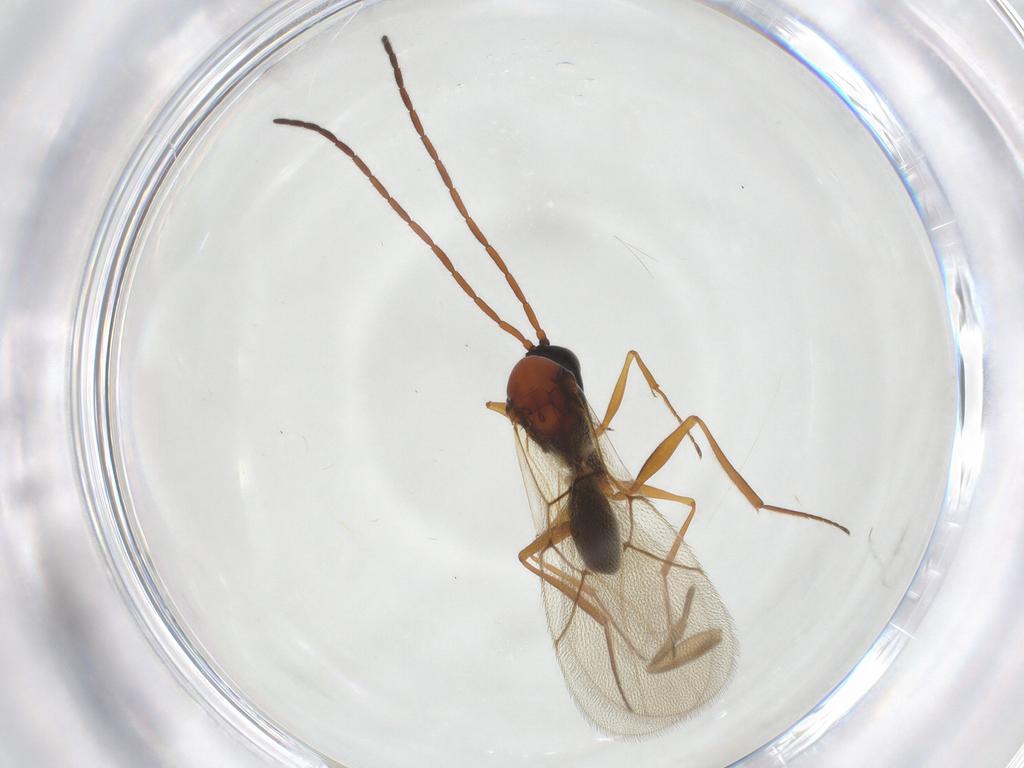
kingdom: Animalia
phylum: Arthropoda
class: Insecta
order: Hymenoptera
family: Figitidae
